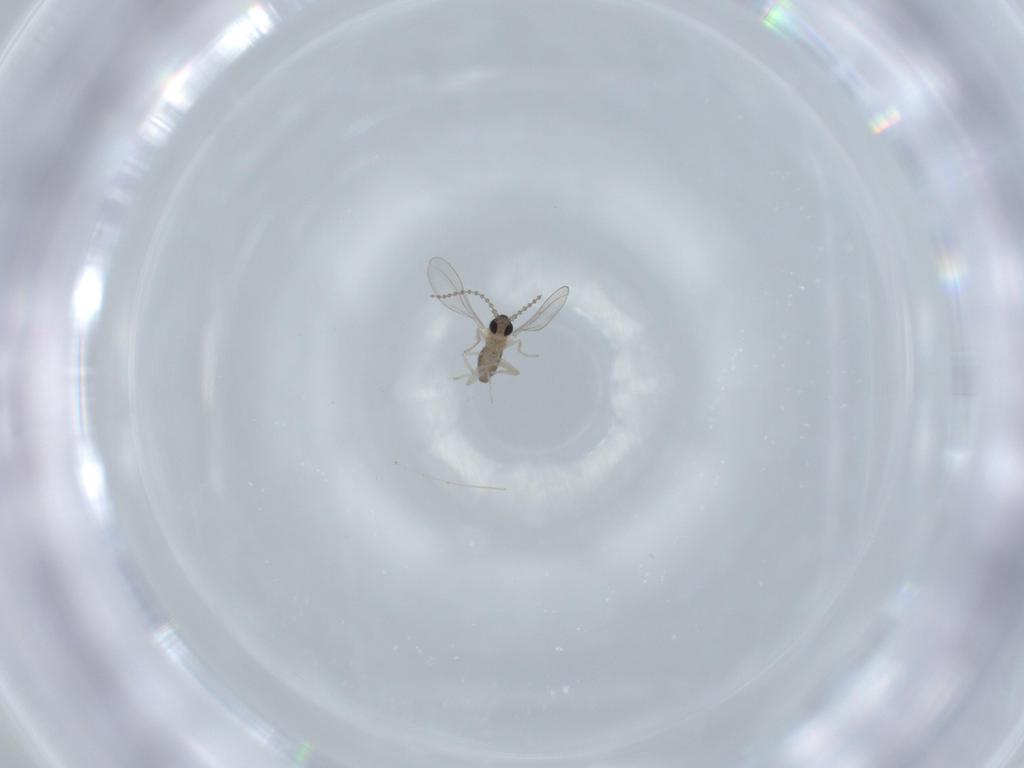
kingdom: Animalia
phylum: Arthropoda
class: Insecta
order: Diptera
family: Cecidomyiidae
